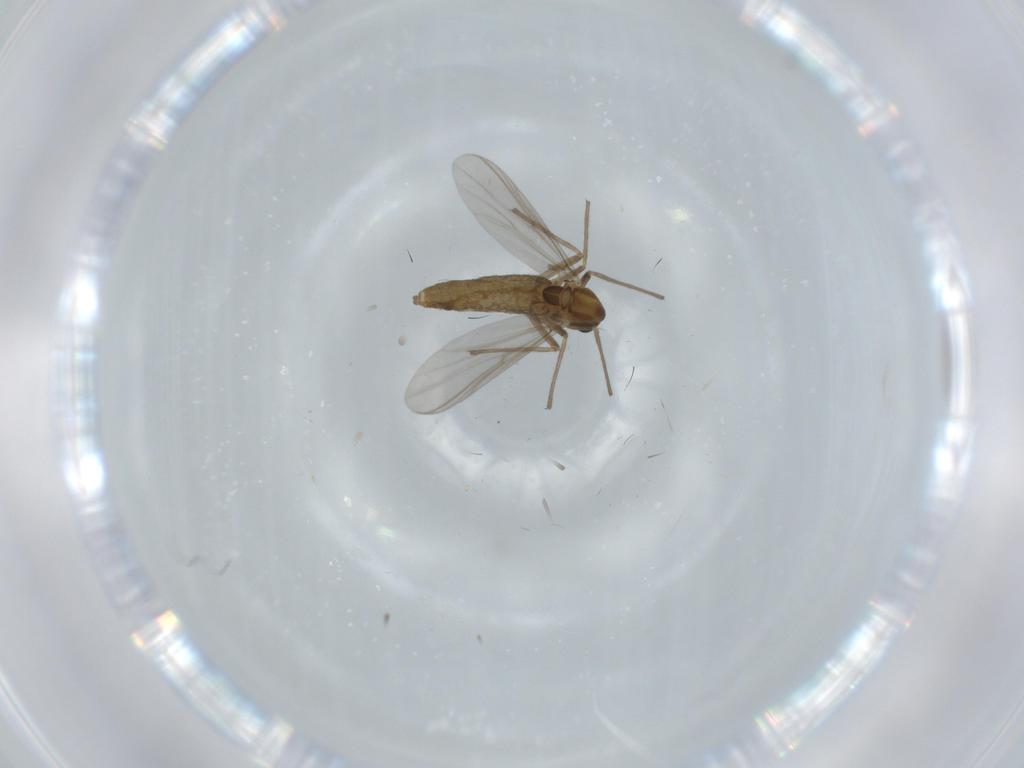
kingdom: Animalia
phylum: Arthropoda
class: Insecta
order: Diptera
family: Chironomidae
